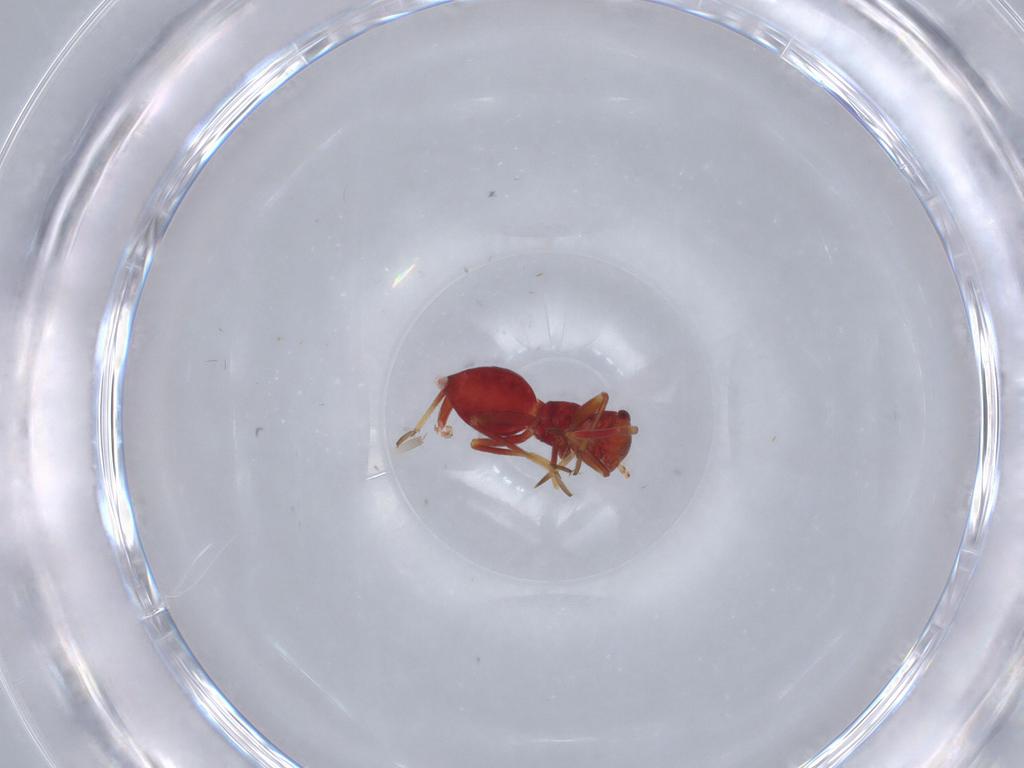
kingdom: Animalia
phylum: Arthropoda
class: Insecta
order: Hemiptera
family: Miridae
